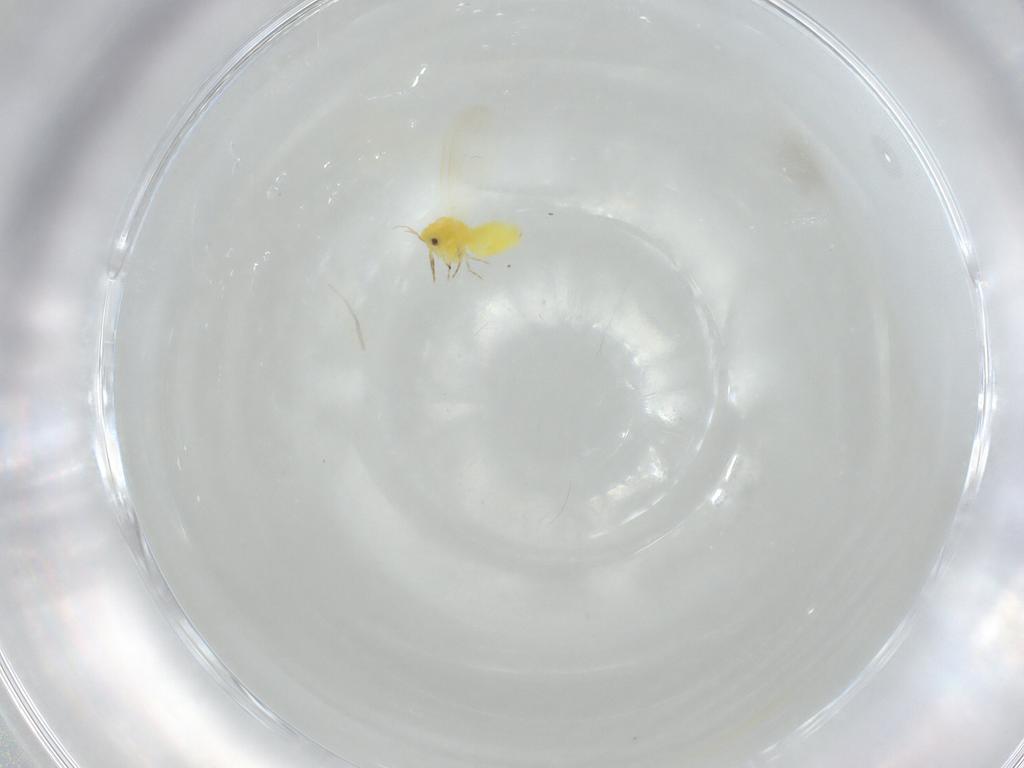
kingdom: Animalia
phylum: Arthropoda
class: Insecta
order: Hemiptera
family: Aleyrodidae
